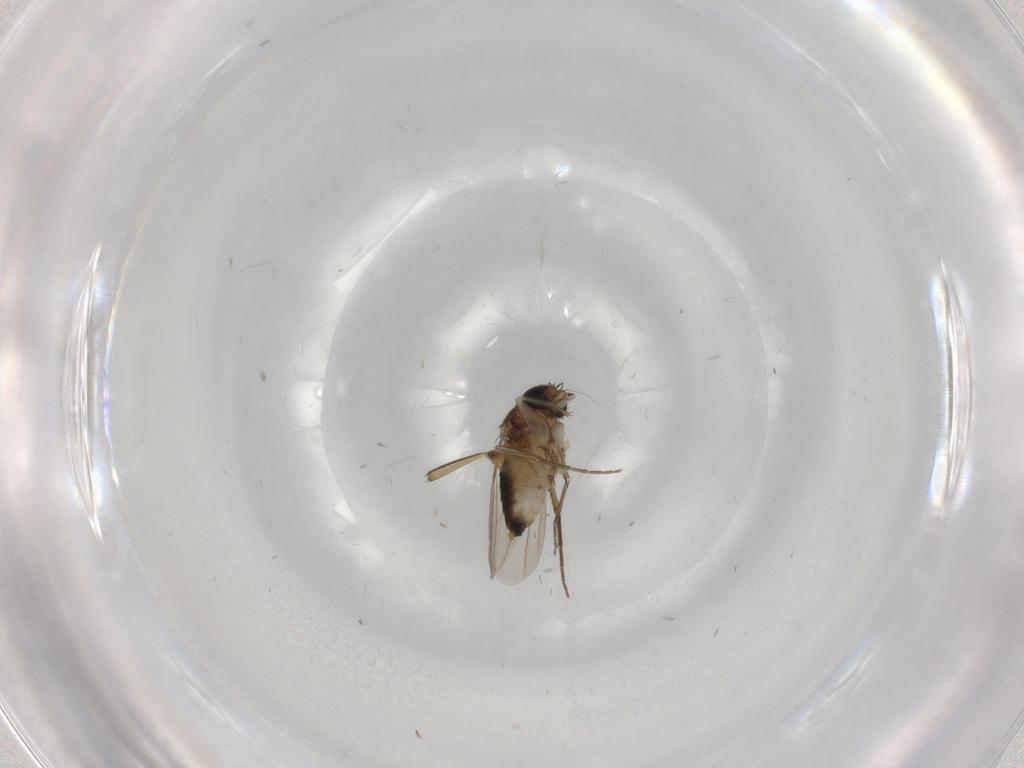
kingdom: Animalia
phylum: Arthropoda
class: Insecta
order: Diptera
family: Phoridae
